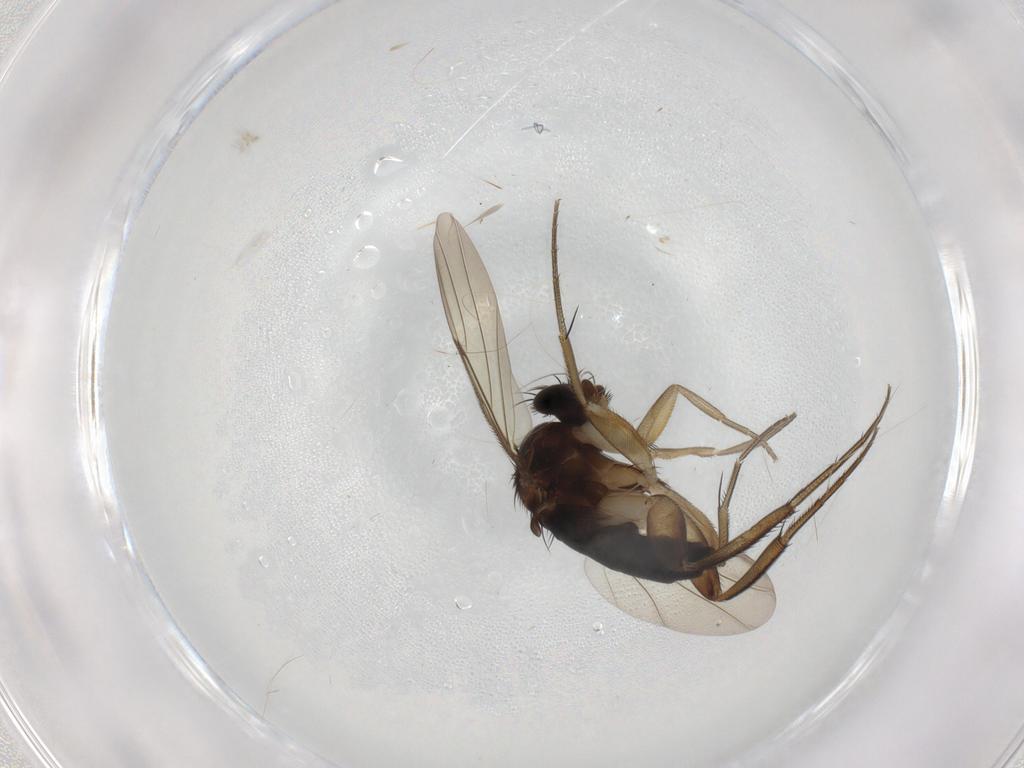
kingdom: Animalia
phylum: Arthropoda
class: Insecta
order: Diptera
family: Phoridae
